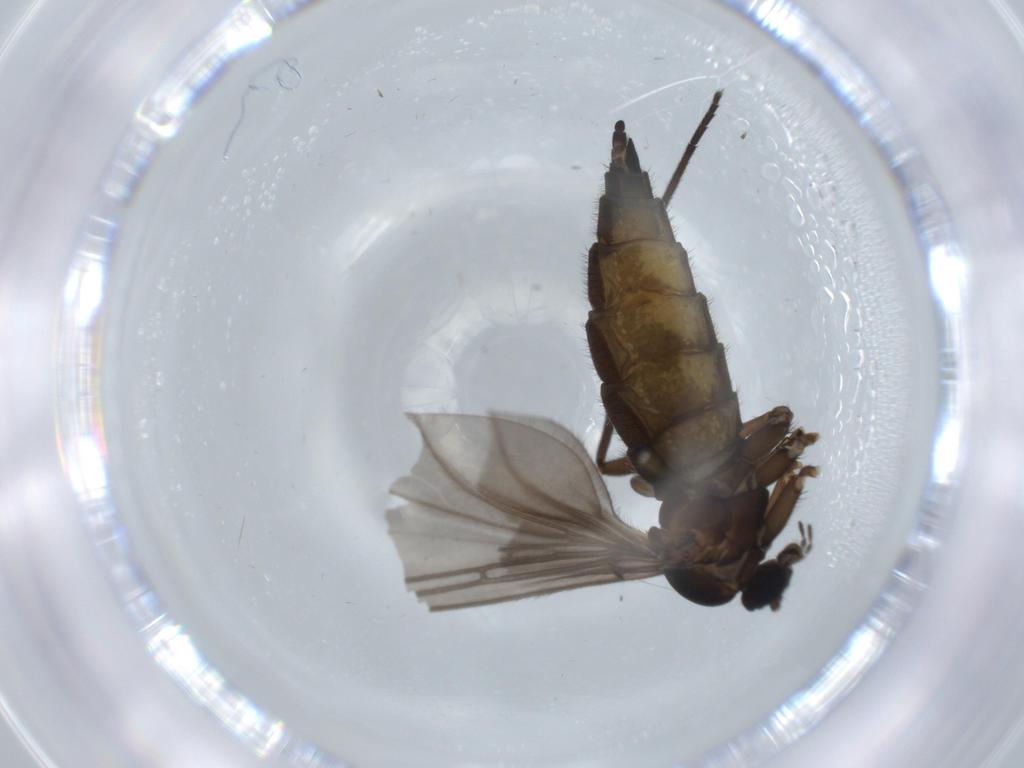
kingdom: Animalia
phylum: Arthropoda
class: Insecta
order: Diptera
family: Sciaridae
